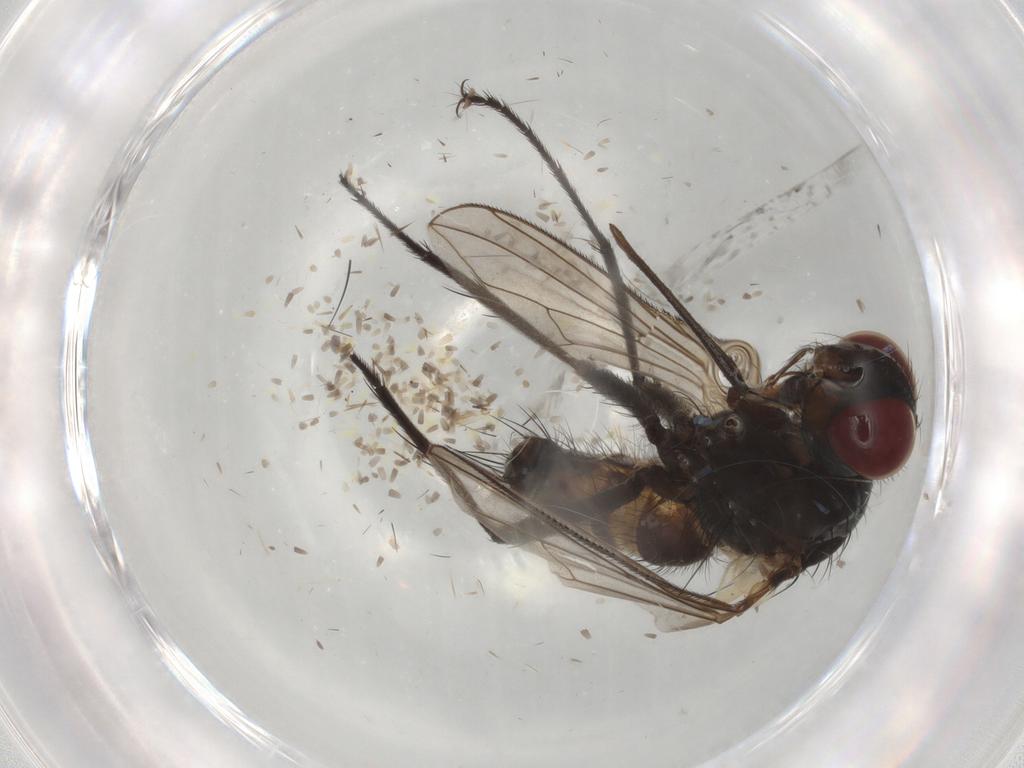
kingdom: Animalia
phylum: Arthropoda
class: Insecta
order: Diptera
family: Tachinidae
